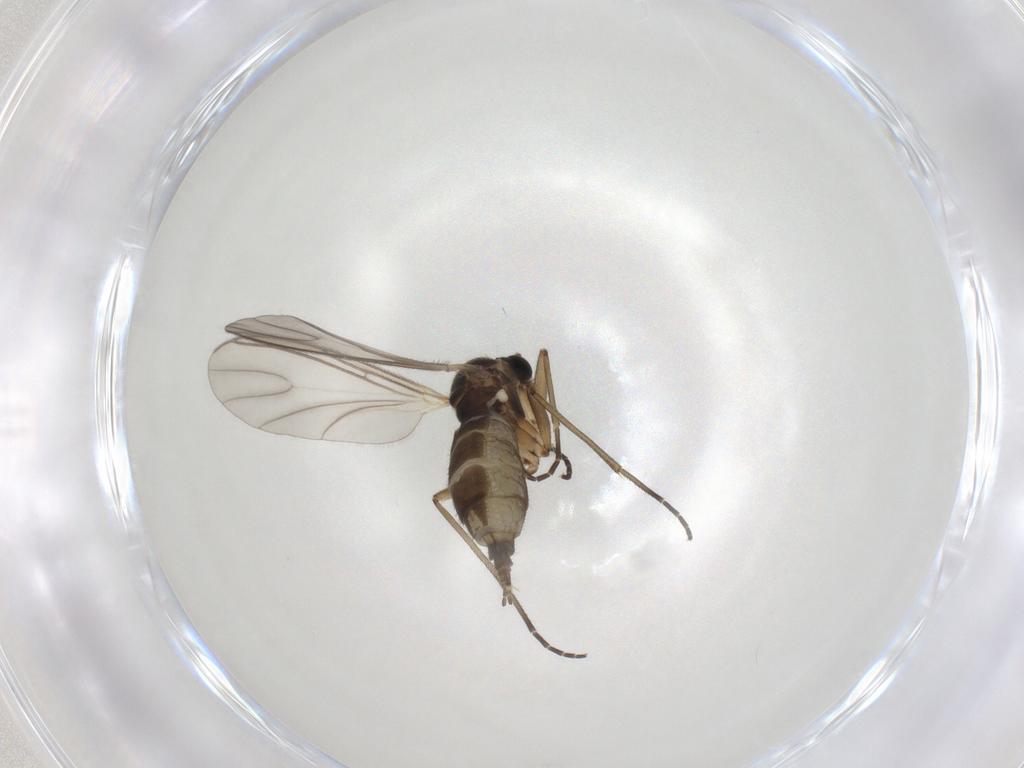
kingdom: Animalia
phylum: Arthropoda
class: Insecta
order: Diptera
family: Chironomidae
